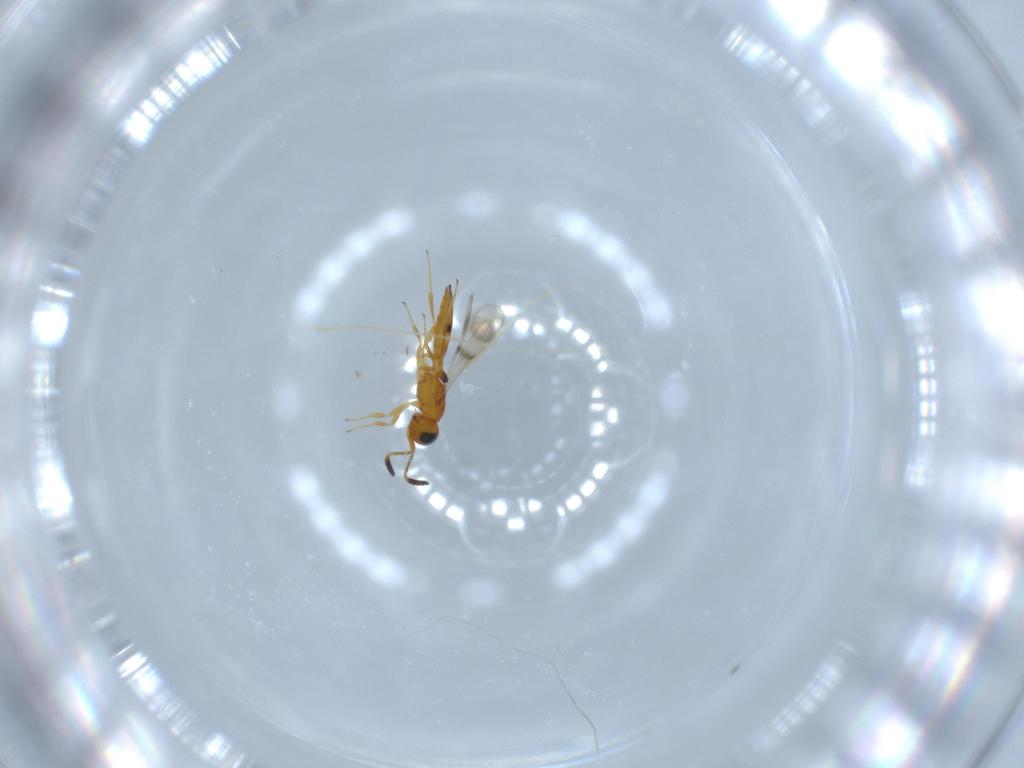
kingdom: Animalia
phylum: Arthropoda
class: Insecta
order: Hymenoptera
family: Scelionidae
